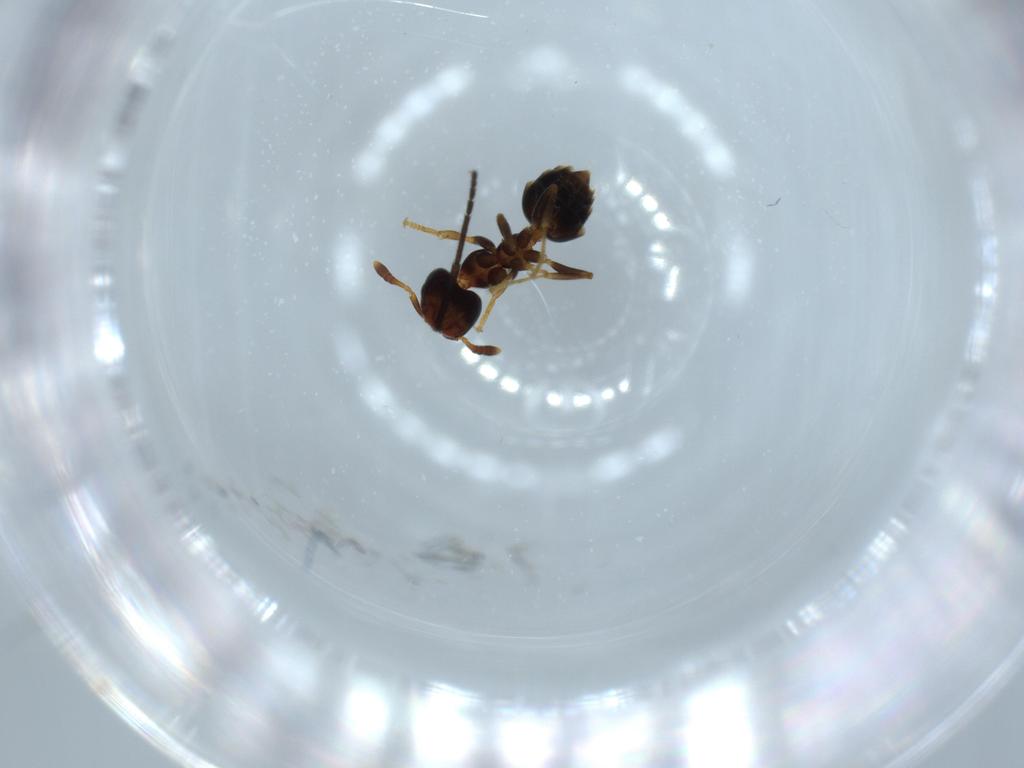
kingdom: Animalia
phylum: Arthropoda
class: Insecta
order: Hymenoptera
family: Formicidae
